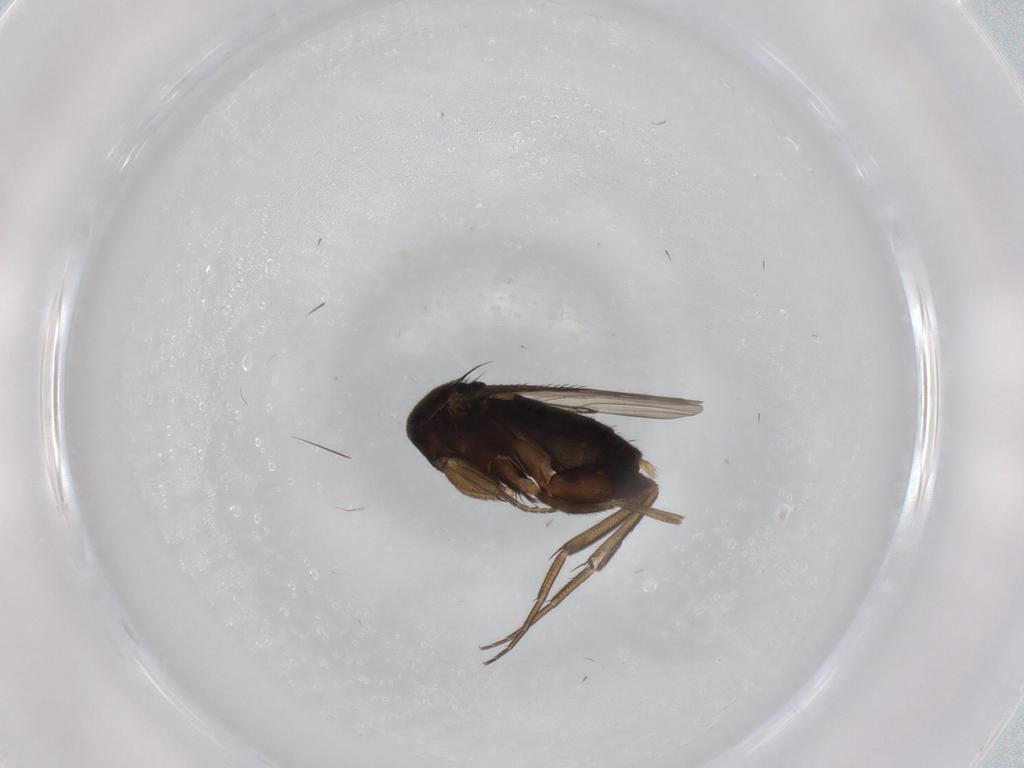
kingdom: Animalia
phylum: Arthropoda
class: Insecta
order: Diptera
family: Phoridae
